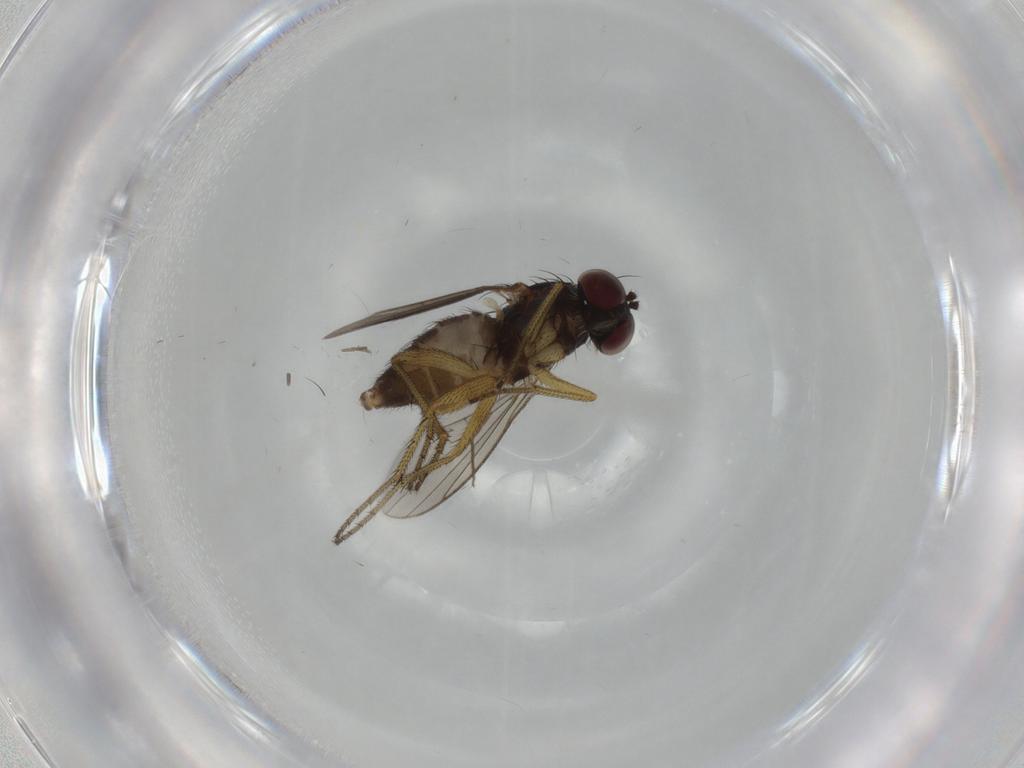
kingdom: Animalia
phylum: Arthropoda
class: Insecta
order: Diptera
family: Dolichopodidae
